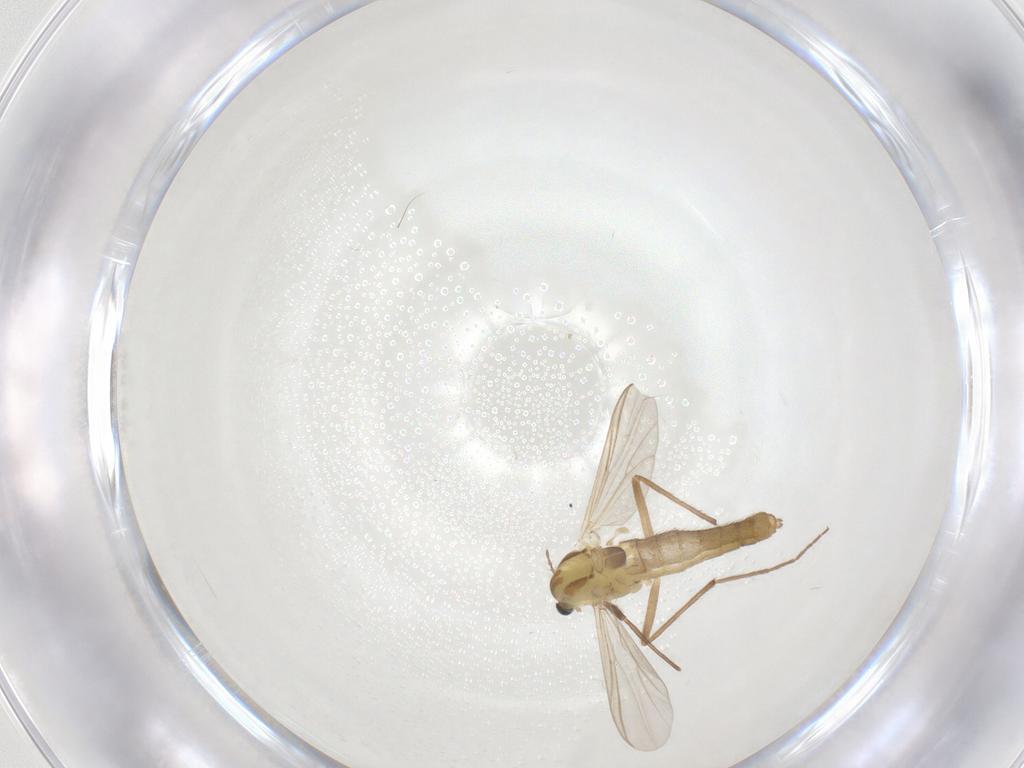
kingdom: Animalia
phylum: Arthropoda
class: Insecta
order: Diptera
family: Chironomidae
